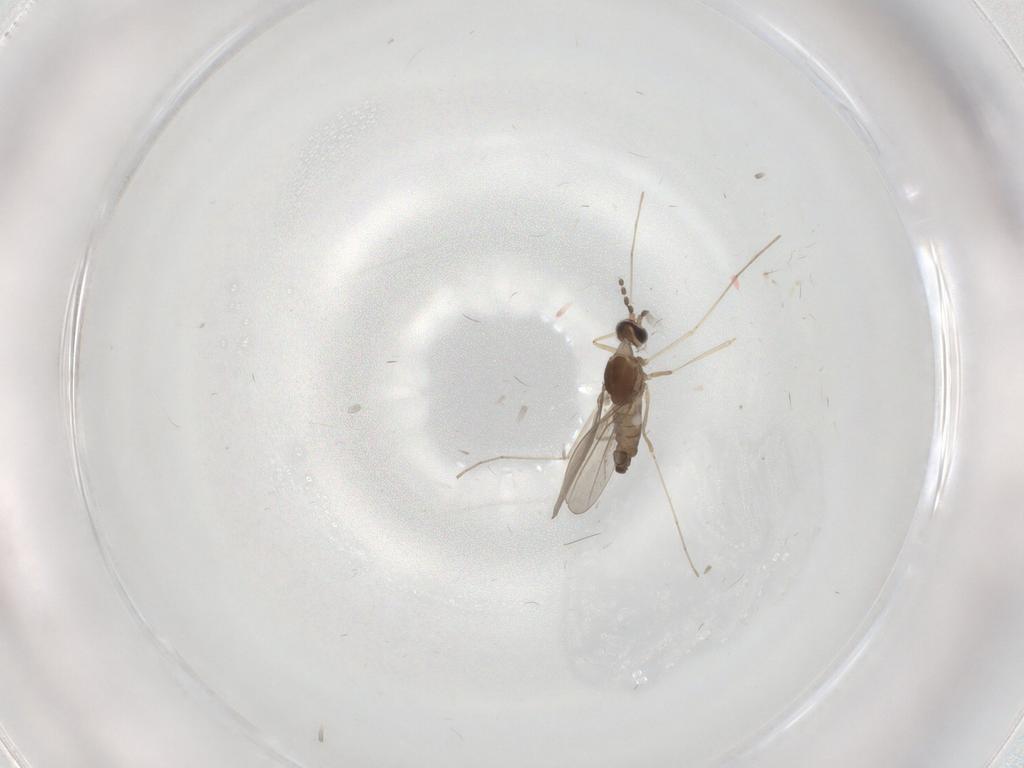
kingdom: Animalia
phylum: Arthropoda
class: Insecta
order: Diptera
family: Cecidomyiidae
